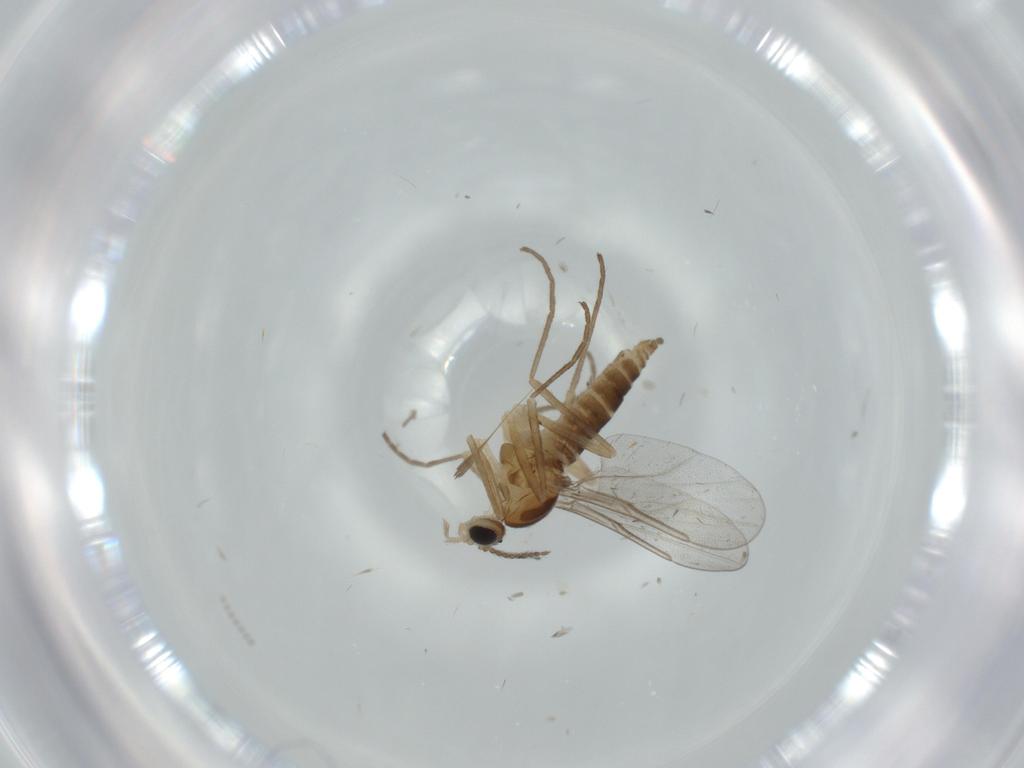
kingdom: Animalia
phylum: Arthropoda
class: Insecta
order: Diptera
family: Cecidomyiidae
